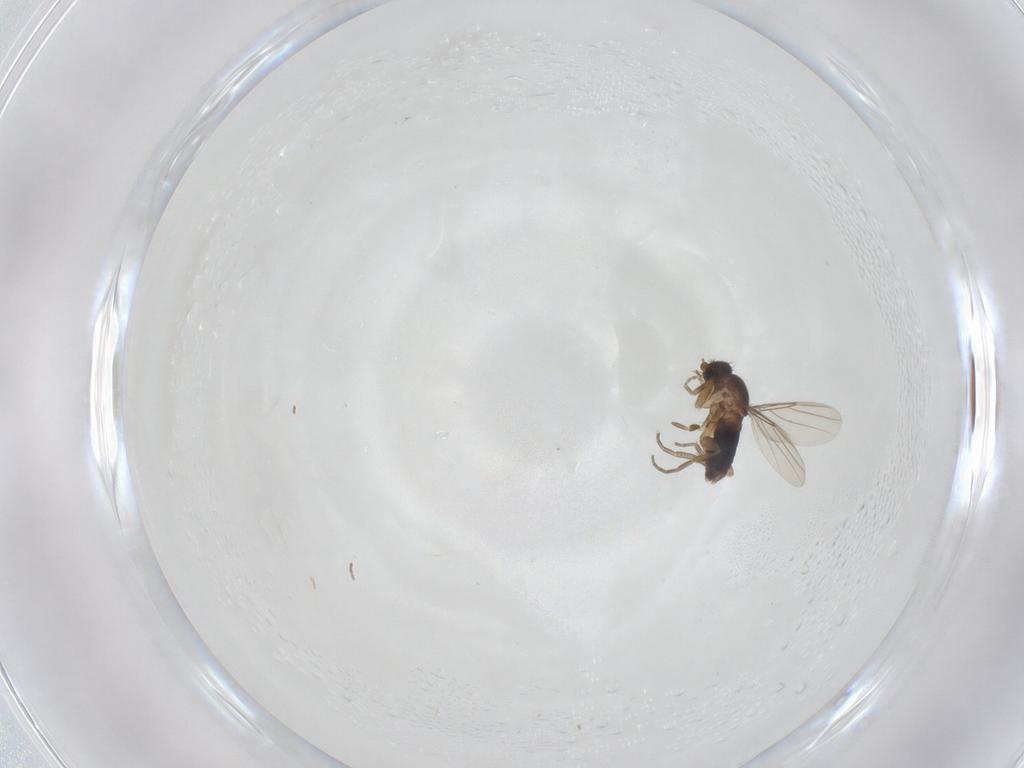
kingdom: Animalia
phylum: Arthropoda
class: Insecta
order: Diptera
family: Phoridae
